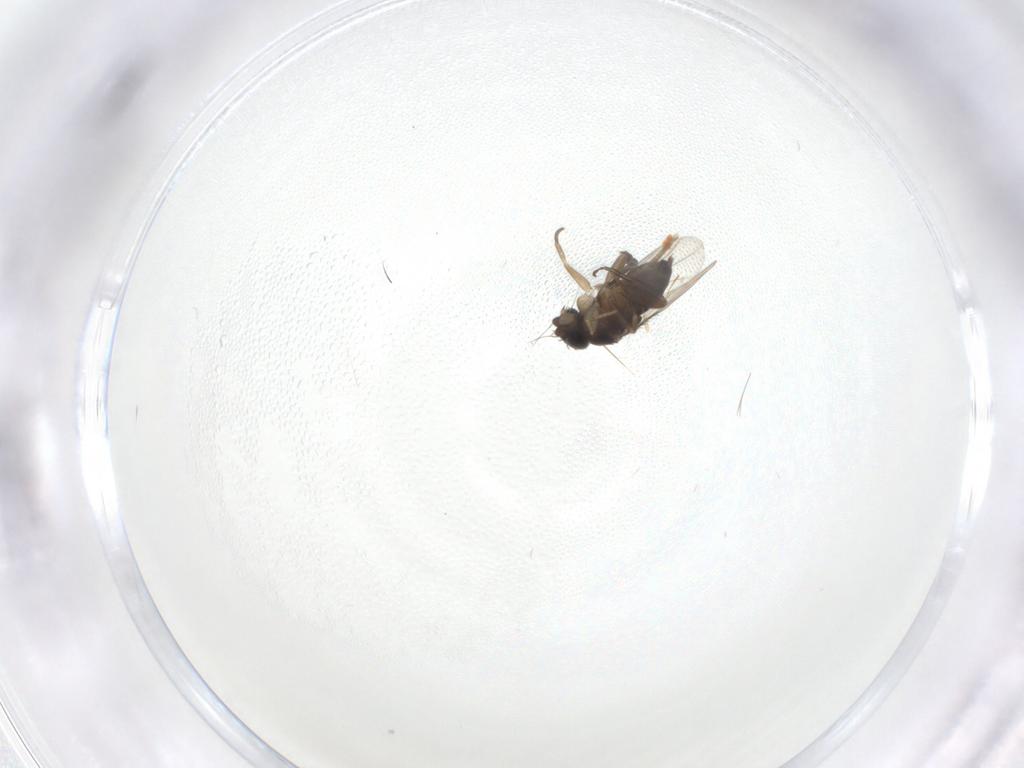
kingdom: Animalia
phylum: Arthropoda
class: Insecta
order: Diptera
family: Phoridae
